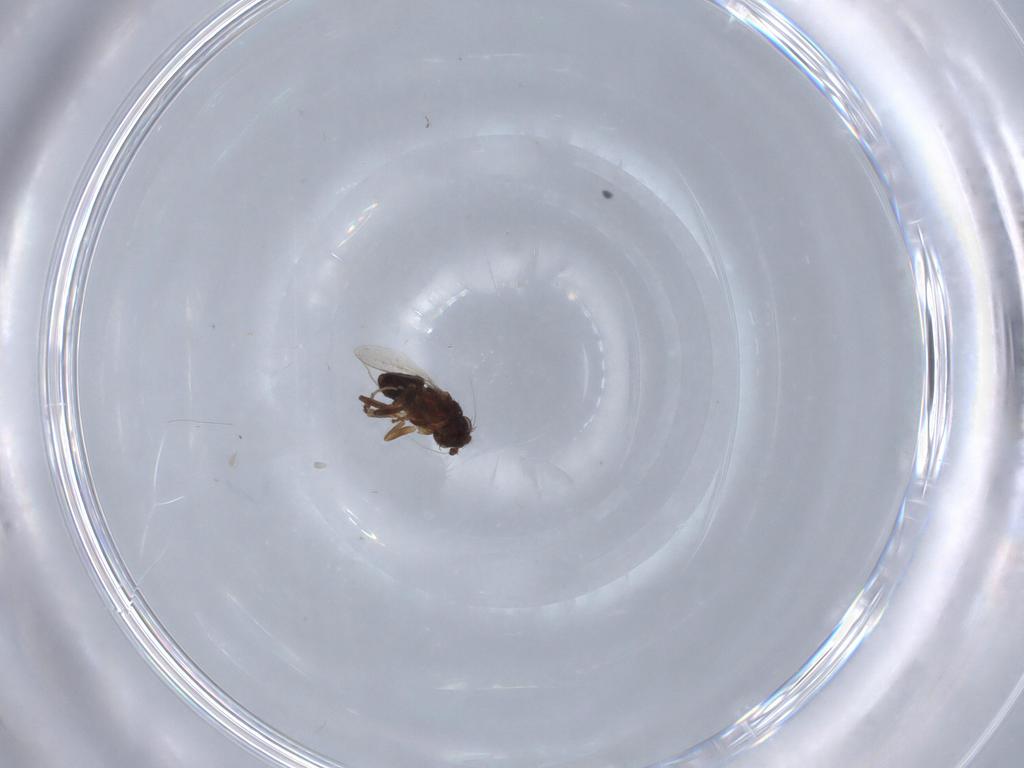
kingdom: Animalia
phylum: Arthropoda
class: Insecta
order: Diptera
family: Sphaeroceridae
